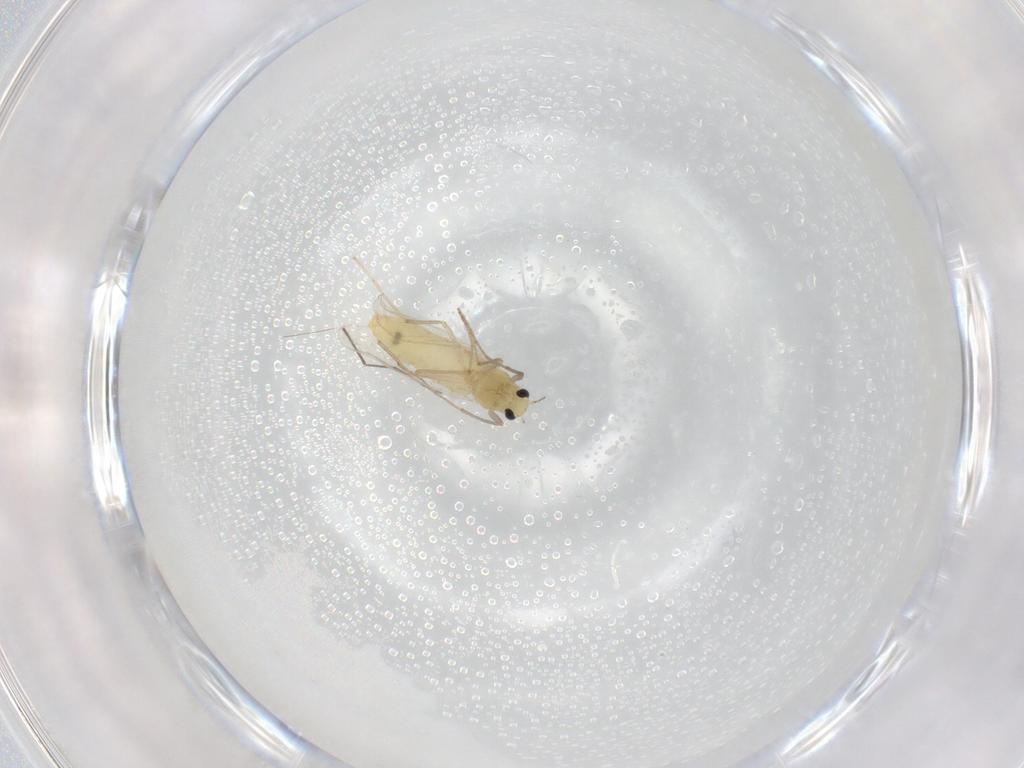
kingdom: Animalia
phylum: Arthropoda
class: Insecta
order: Diptera
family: Chironomidae
